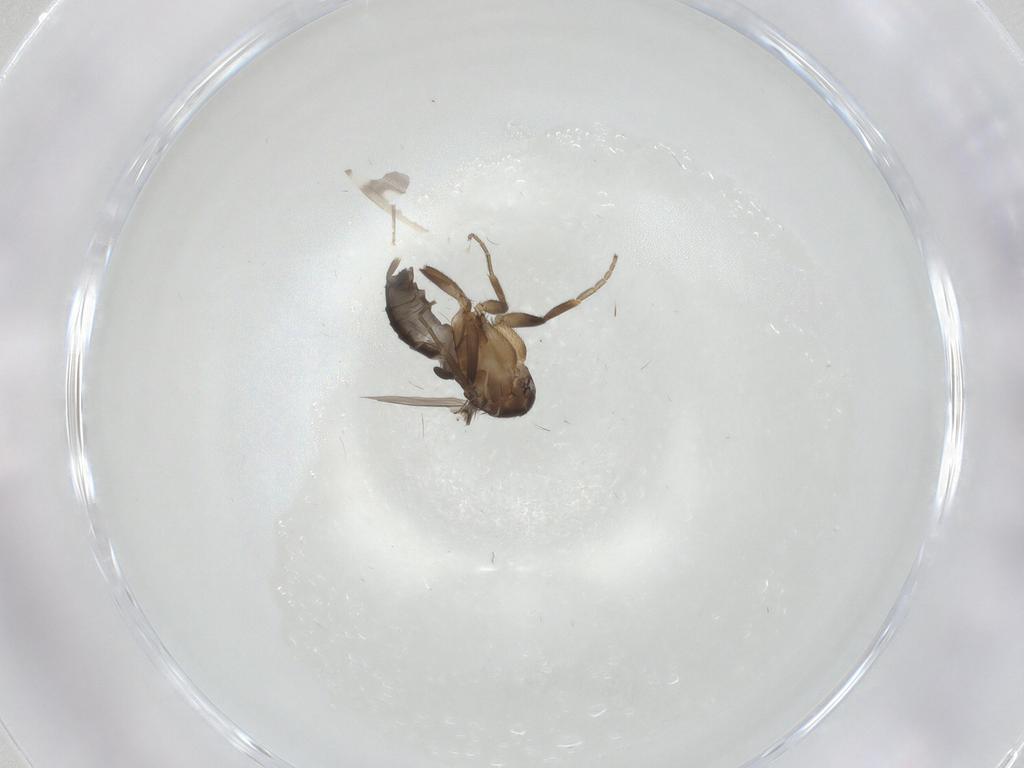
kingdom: Animalia
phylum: Arthropoda
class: Insecta
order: Diptera
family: Phoridae
